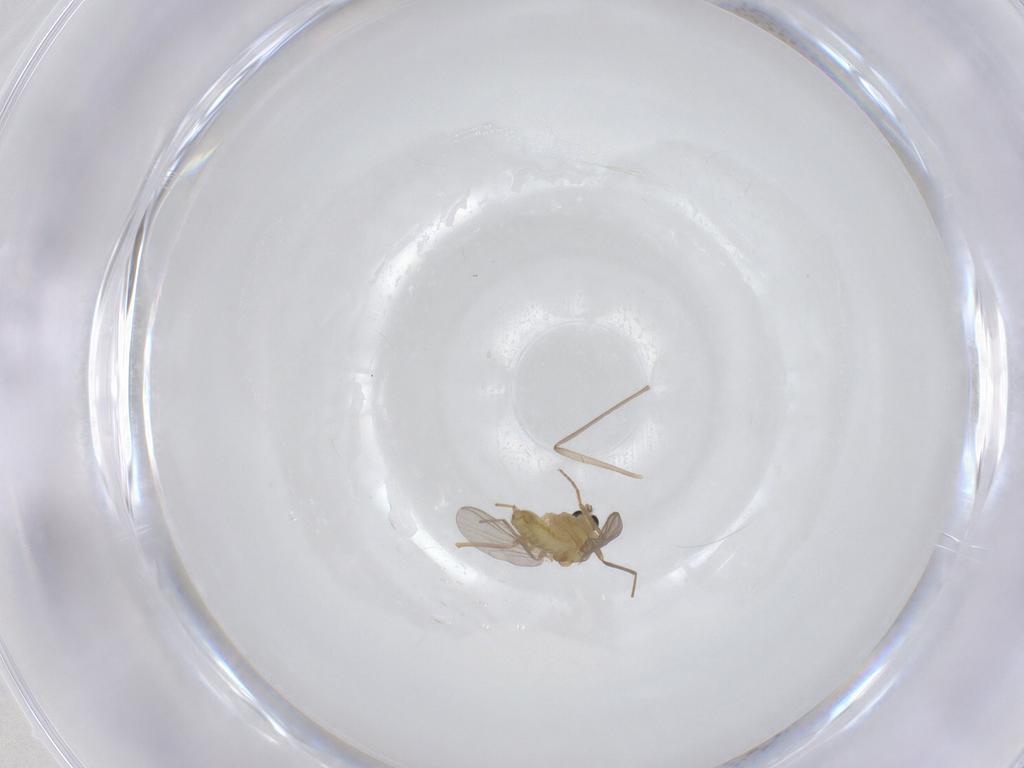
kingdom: Animalia
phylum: Arthropoda
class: Insecta
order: Diptera
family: Chironomidae
